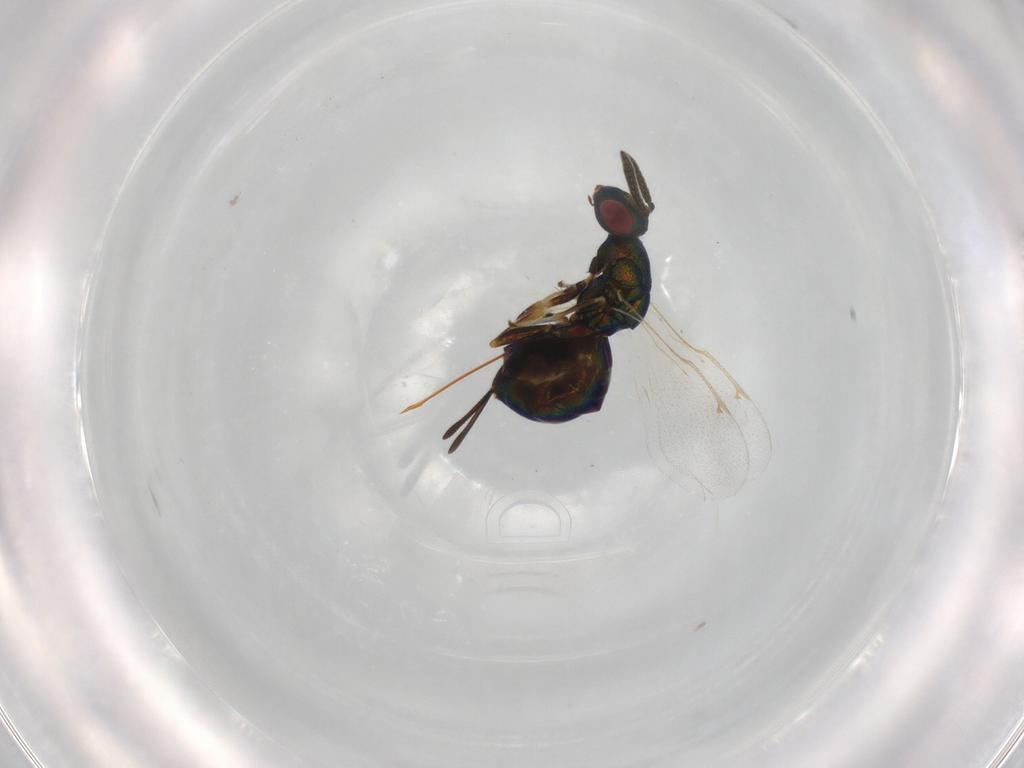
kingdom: Animalia
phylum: Arthropoda
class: Insecta
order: Hymenoptera
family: Torymidae
